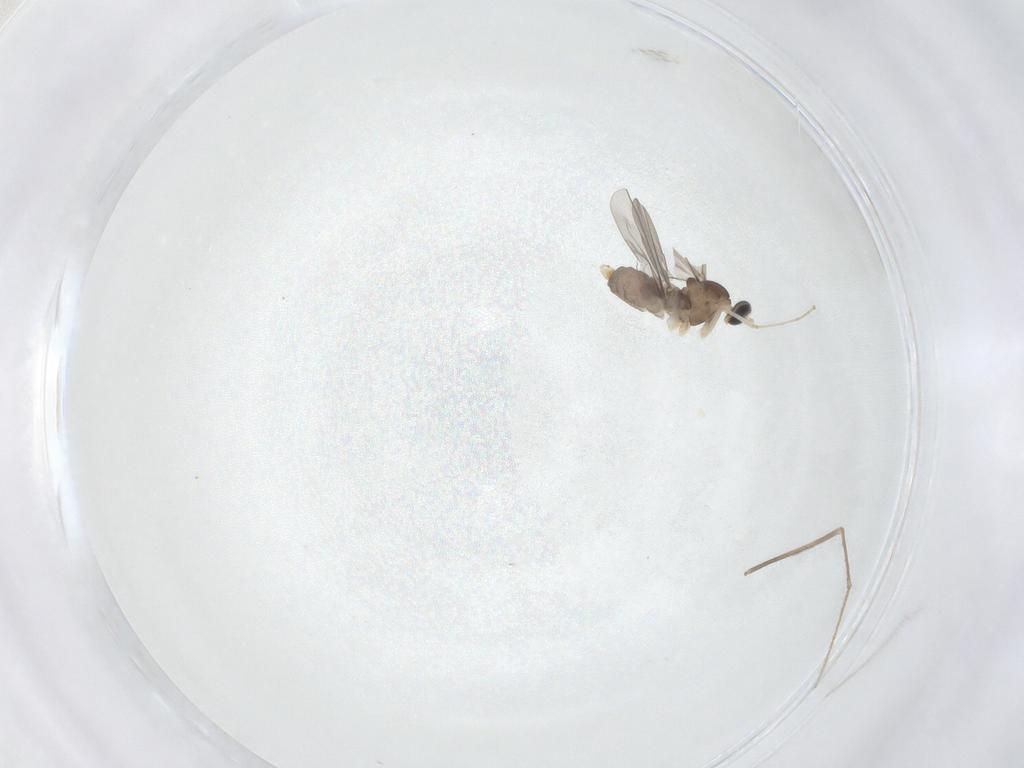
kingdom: Animalia
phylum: Arthropoda
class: Insecta
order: Diptera
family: Cecidomyiidae
